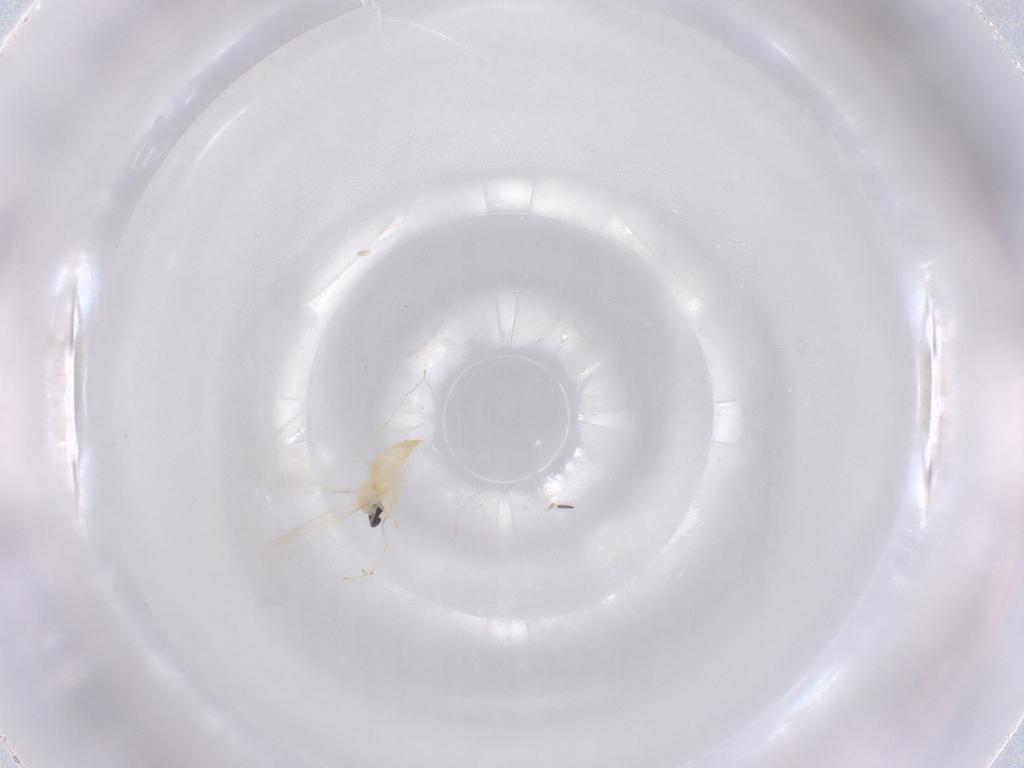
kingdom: Animalia
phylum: Arthropoda
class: Insecta
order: Diptera
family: Cecidomyiidae
